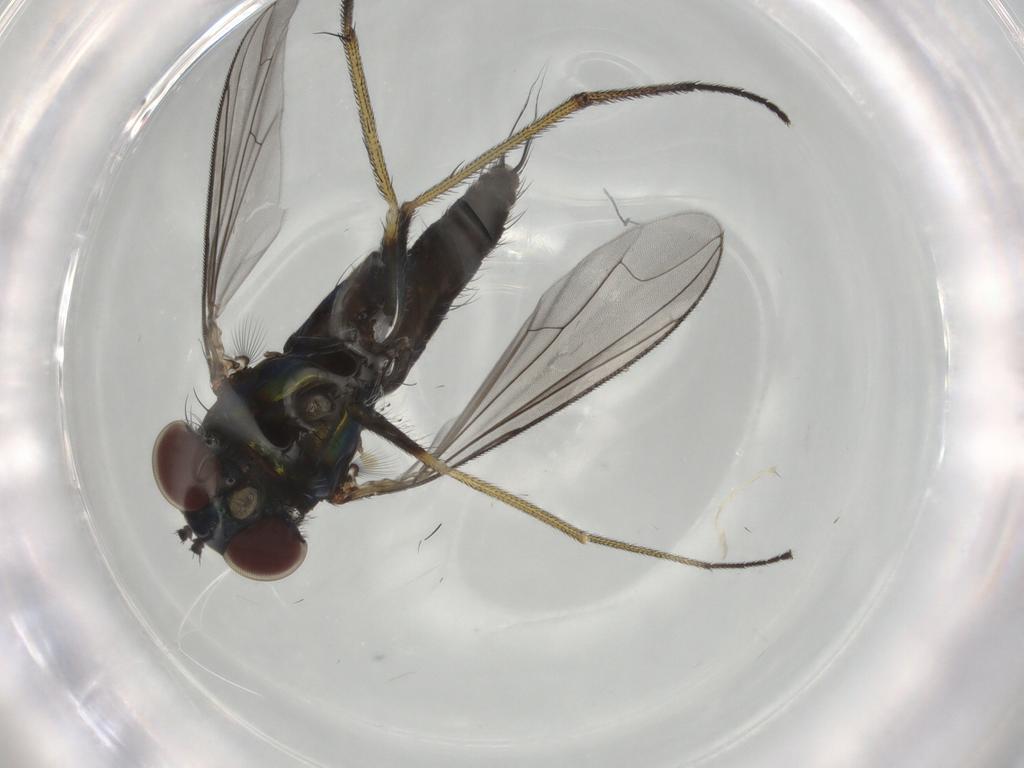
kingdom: Animalia
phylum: Arthropoda
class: Insecta
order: Diptera
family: Dolichopodidae
